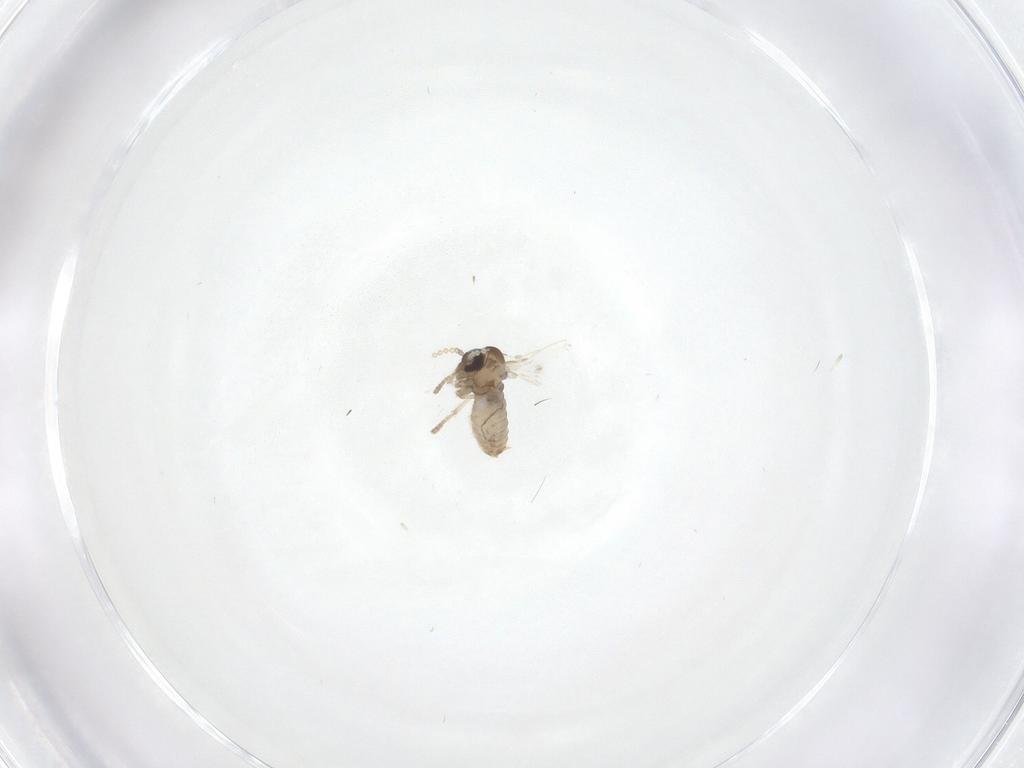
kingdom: Animalia
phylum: Arthropoda
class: Insecta
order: Diptera
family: Psychodidae
